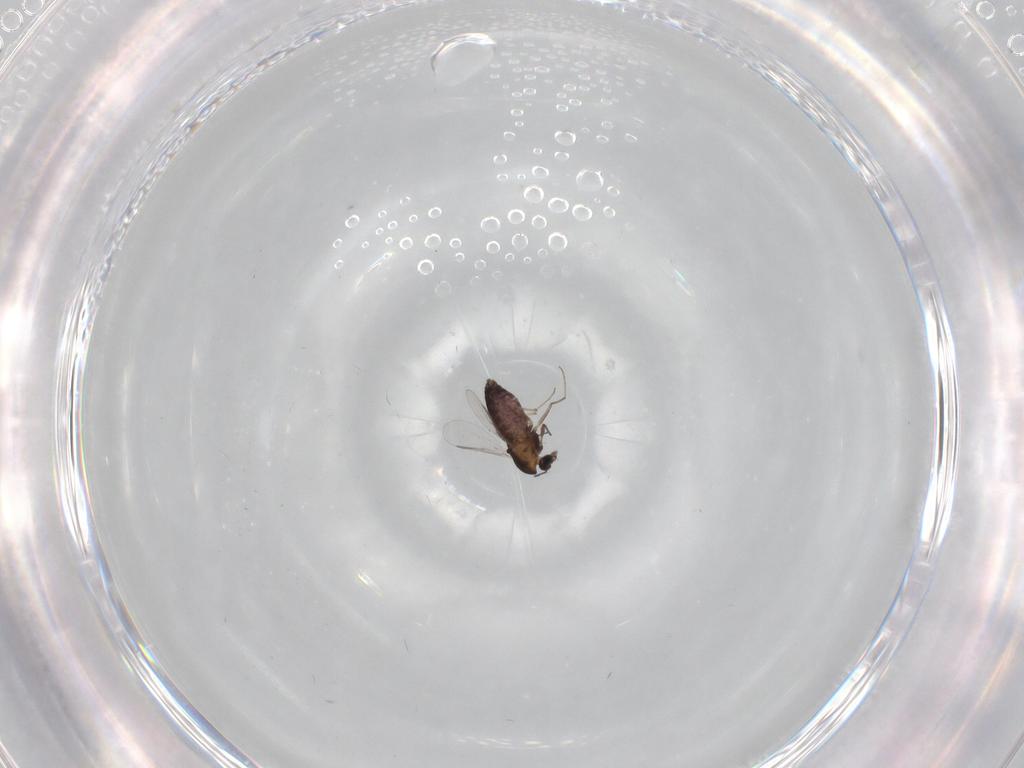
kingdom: Animalia
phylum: Arthropoda
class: Insecta
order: Diptera
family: Chironomidae
